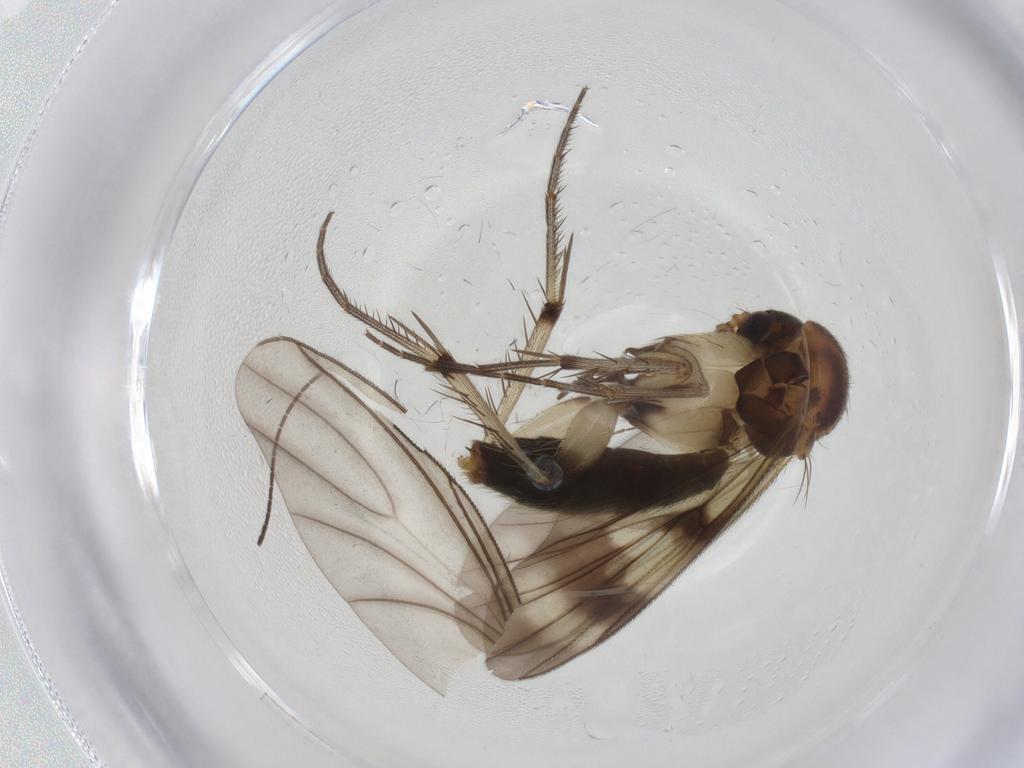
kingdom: Animalia
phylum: Arthropoda
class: Insecta
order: Diptera
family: Sciaridae
